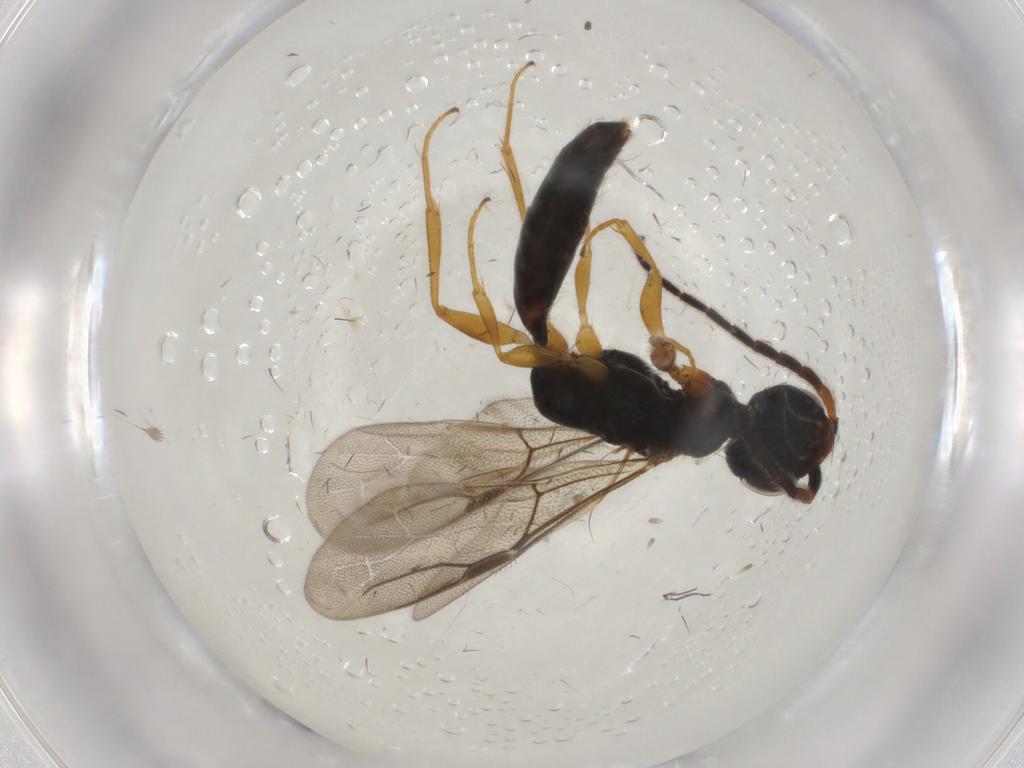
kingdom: Animalia
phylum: Arthropoda
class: Insecta
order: Hymenoptera
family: Bethylidae
